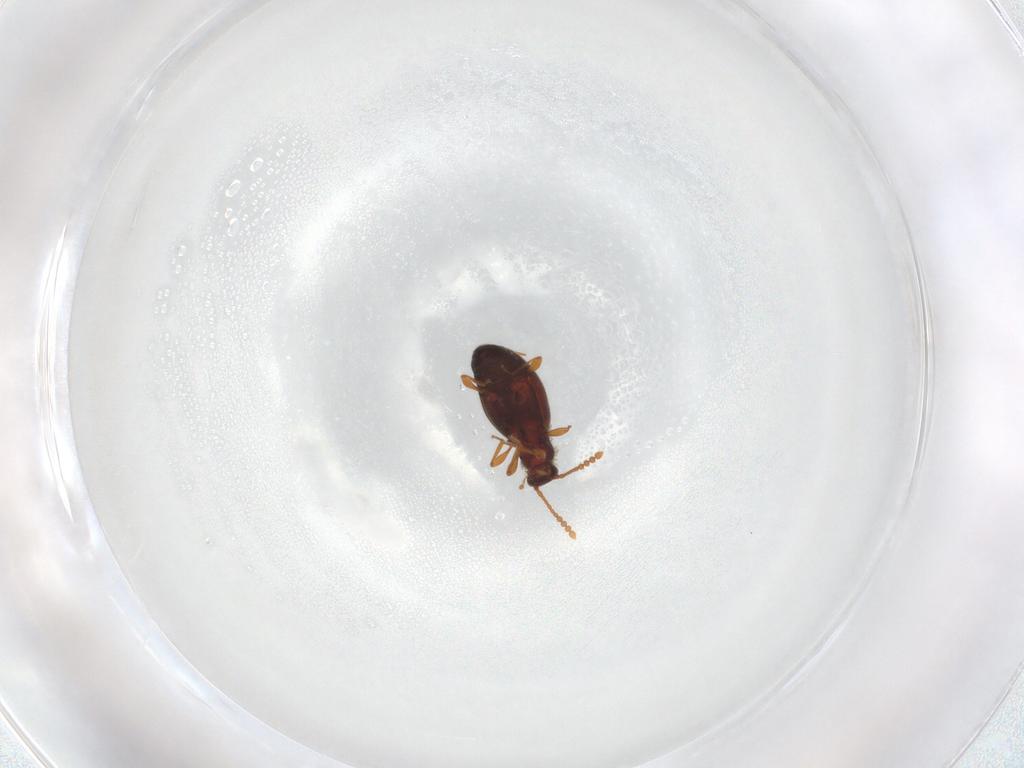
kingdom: Animalia
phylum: Arthropoda
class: Insecta
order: Coleoptera
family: Staphylinidae
